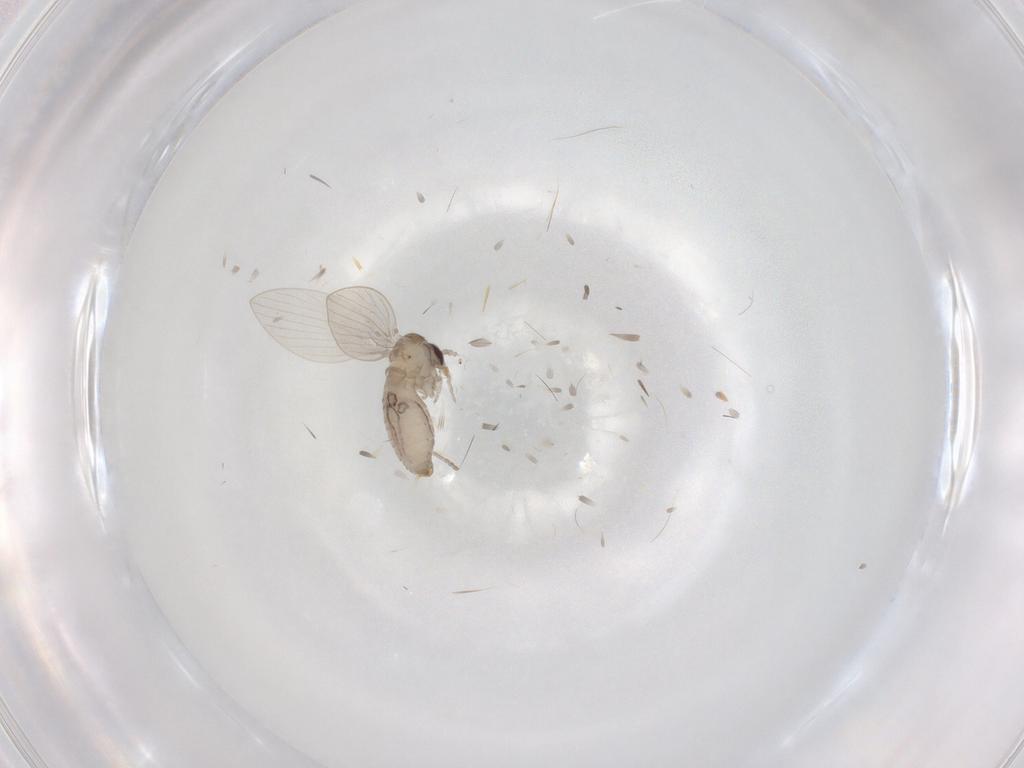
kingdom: Animalia
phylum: Arthropoda
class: Insecta
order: Diptera
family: Psychodidae
